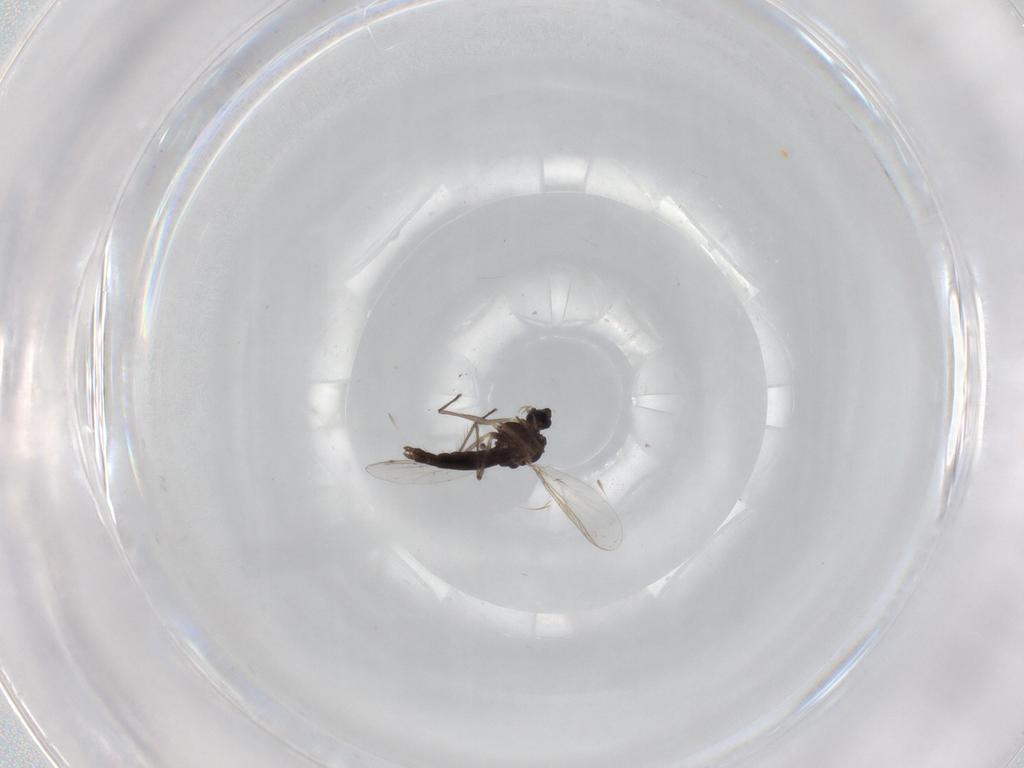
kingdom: Animalia
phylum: Arthropoda
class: Insecta
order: Diptera
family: Chironomidae
